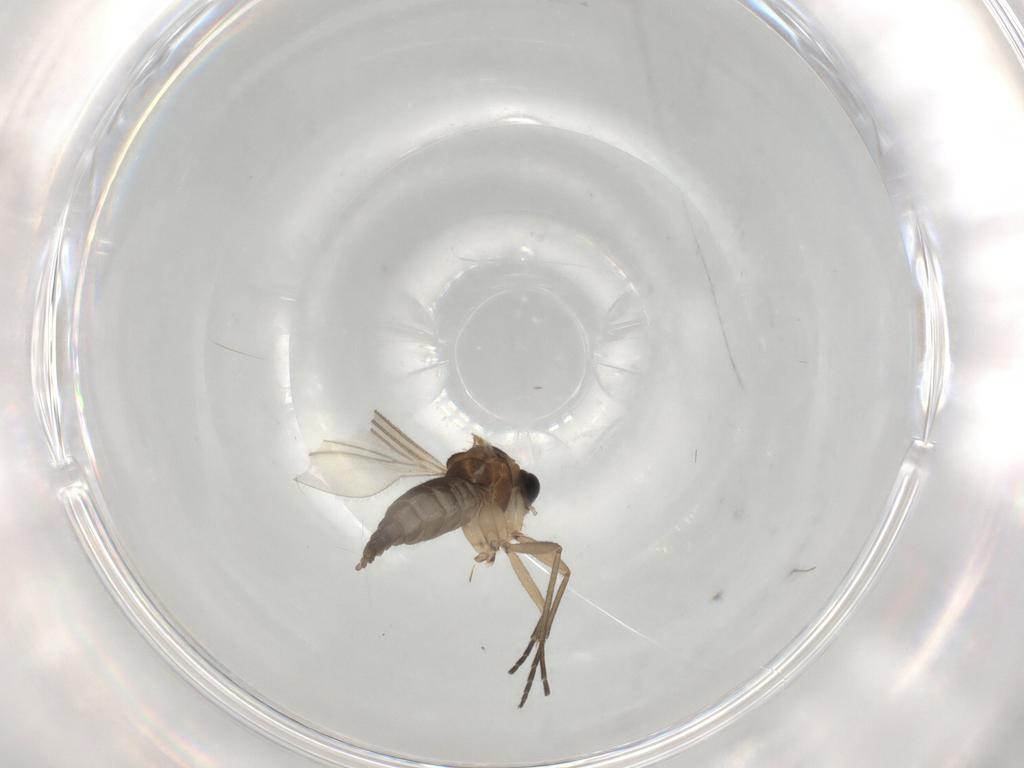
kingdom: Animalia
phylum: Arthropoda
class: Insecta
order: Diptera
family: Sciaridae
